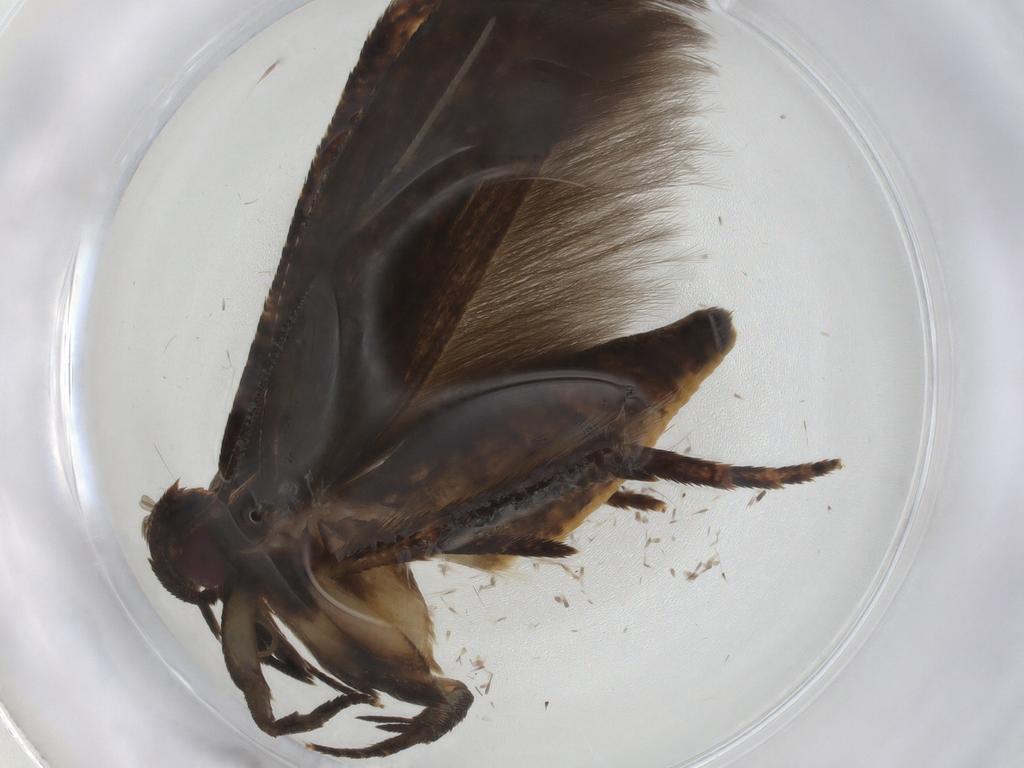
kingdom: Animalia
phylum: Arthropoda
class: Insecta
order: Lepidoptera
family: Cosmopterigidae
